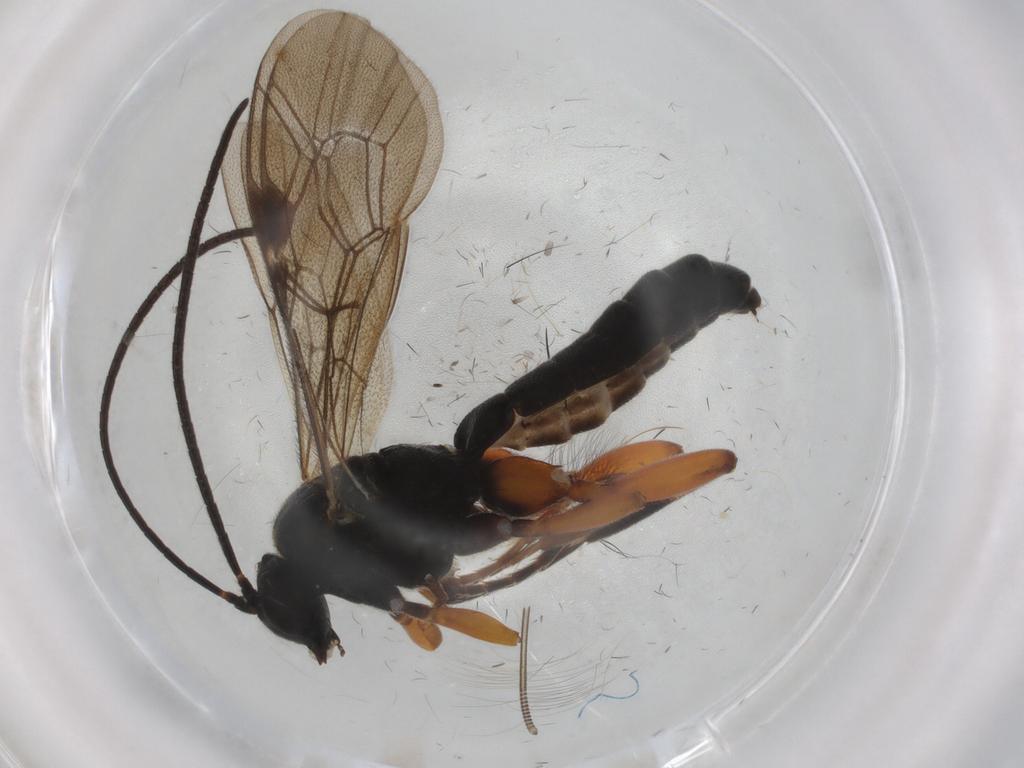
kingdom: Animalia
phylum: Arthropoda
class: Insecta
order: Hymenoptera
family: Ichneumonidae
